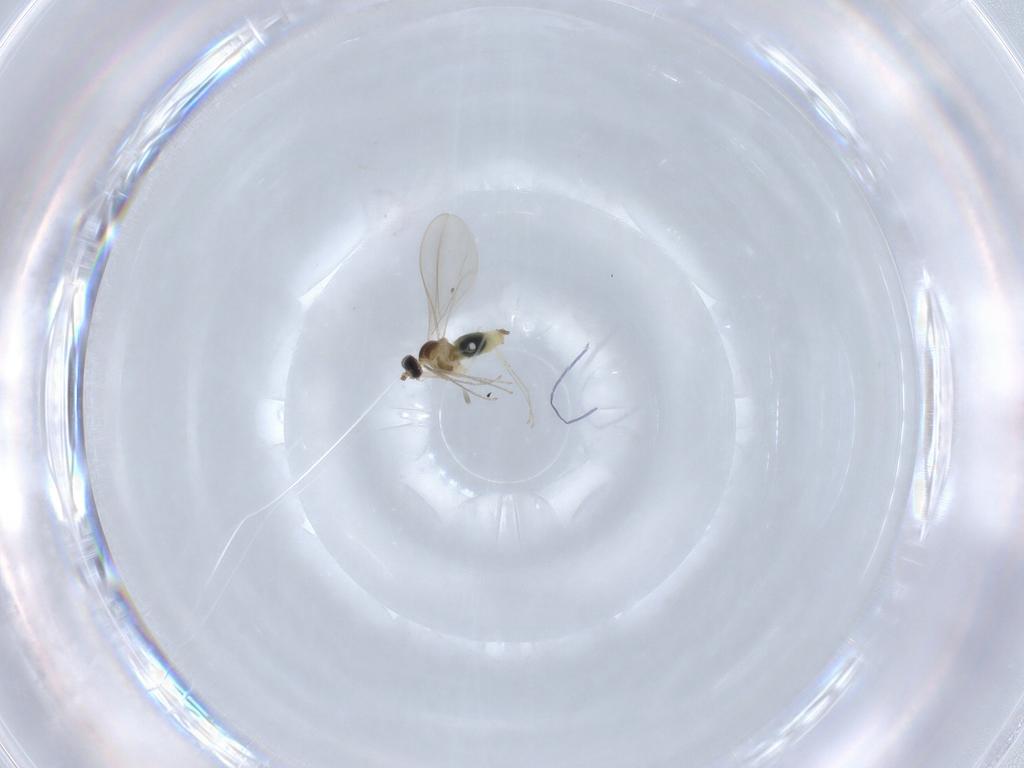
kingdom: Animalia
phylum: Arthropoda
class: Insecta
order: Diptera
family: Cecidomyiidae
